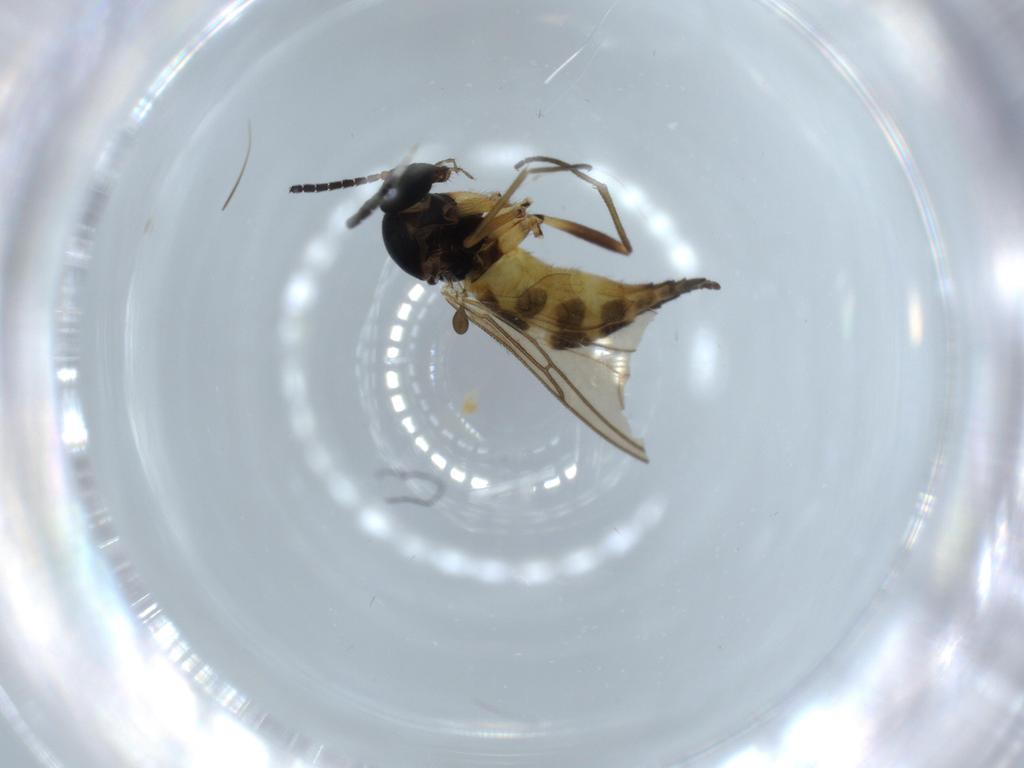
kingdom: Animalia
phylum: Arthropoda
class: Insecta
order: Diptera
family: Sciaridae
